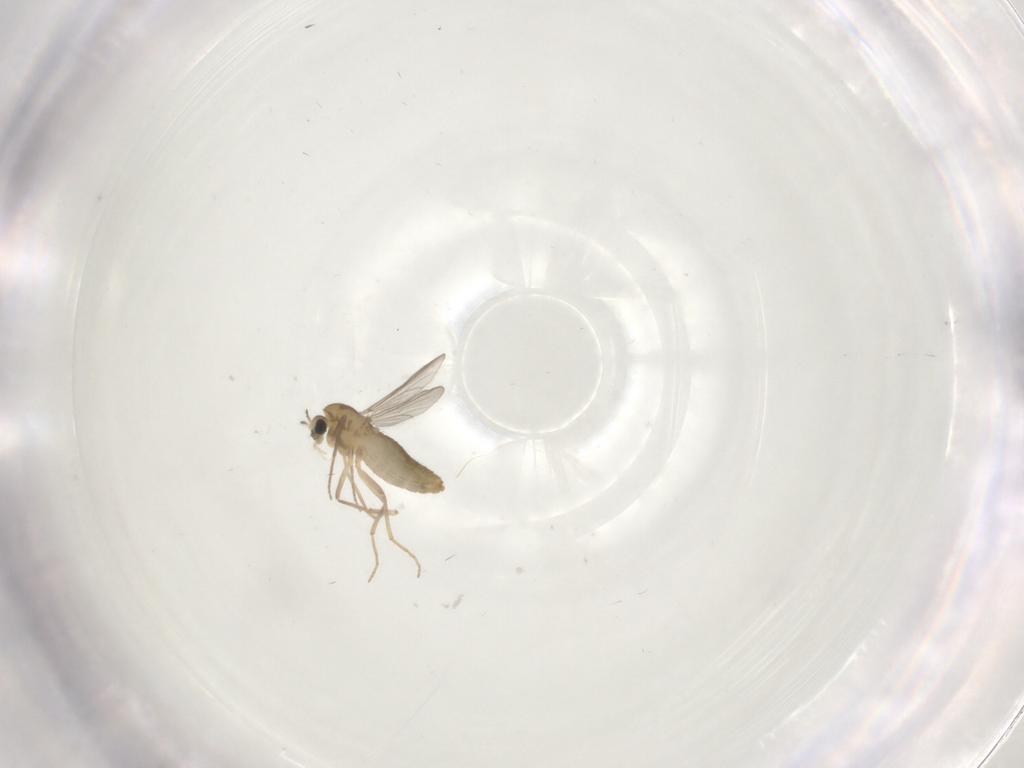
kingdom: Animalia
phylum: Arthropoda
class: Insecta
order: Diptera
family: Chironomidae
